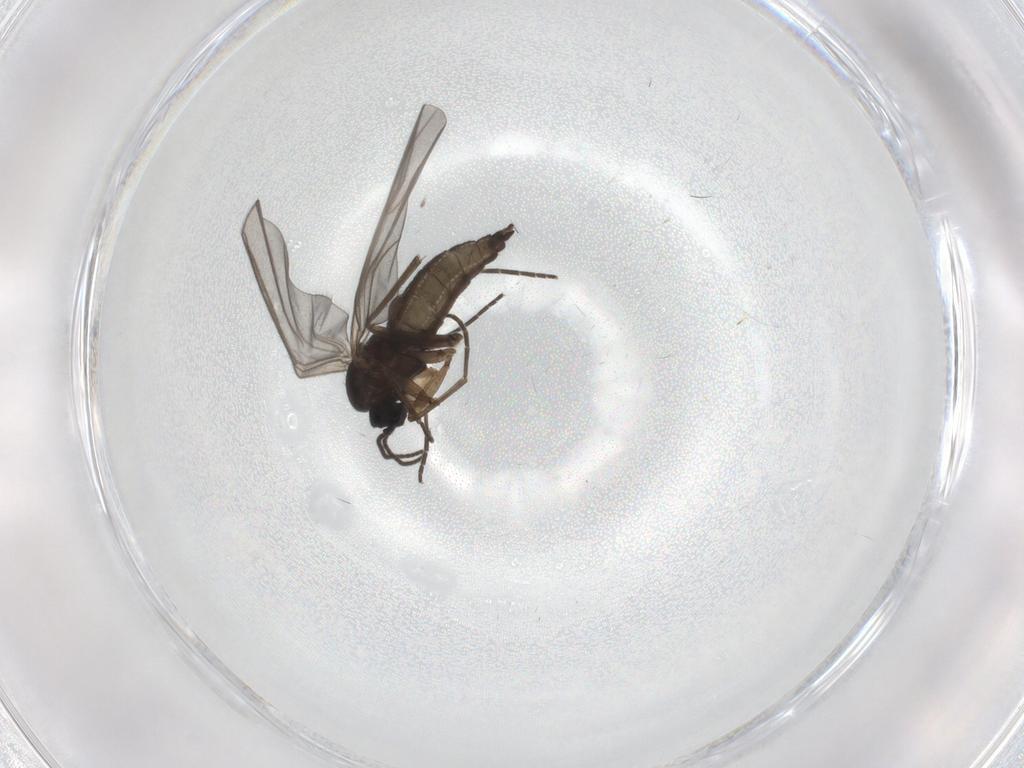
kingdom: Animalia
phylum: Arthropoda
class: Insecta
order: Diptera
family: Sciaridae
